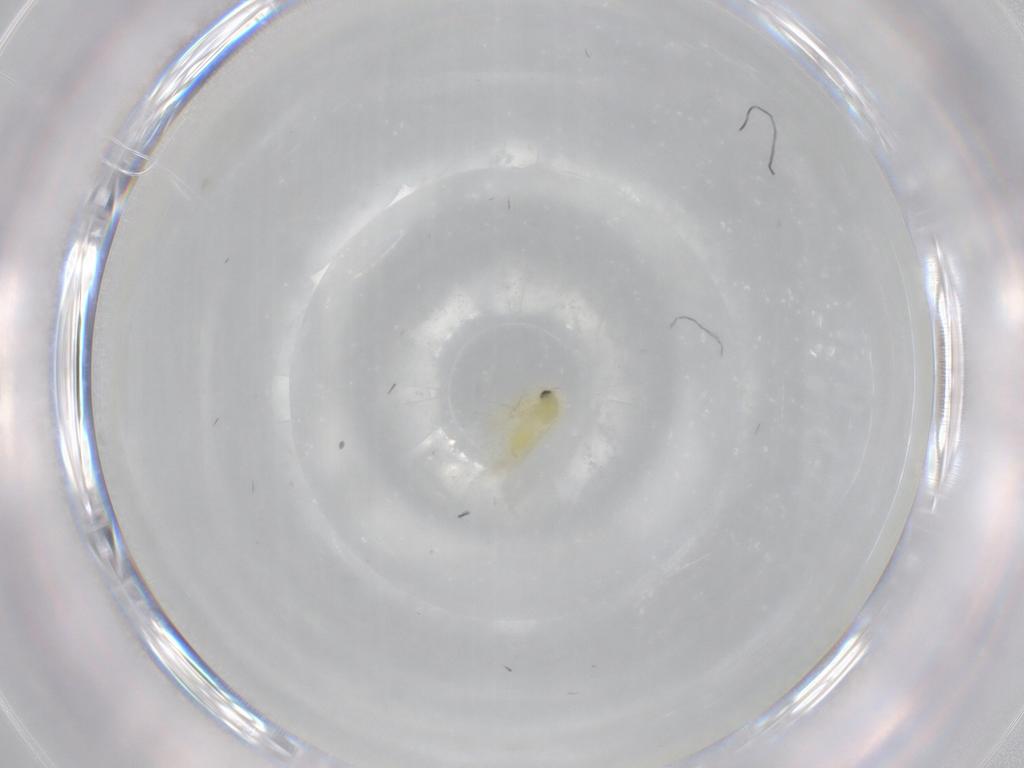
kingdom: Animalia
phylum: Arthropoda
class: Insecta
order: Hemiptera
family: Aleyrodidae
